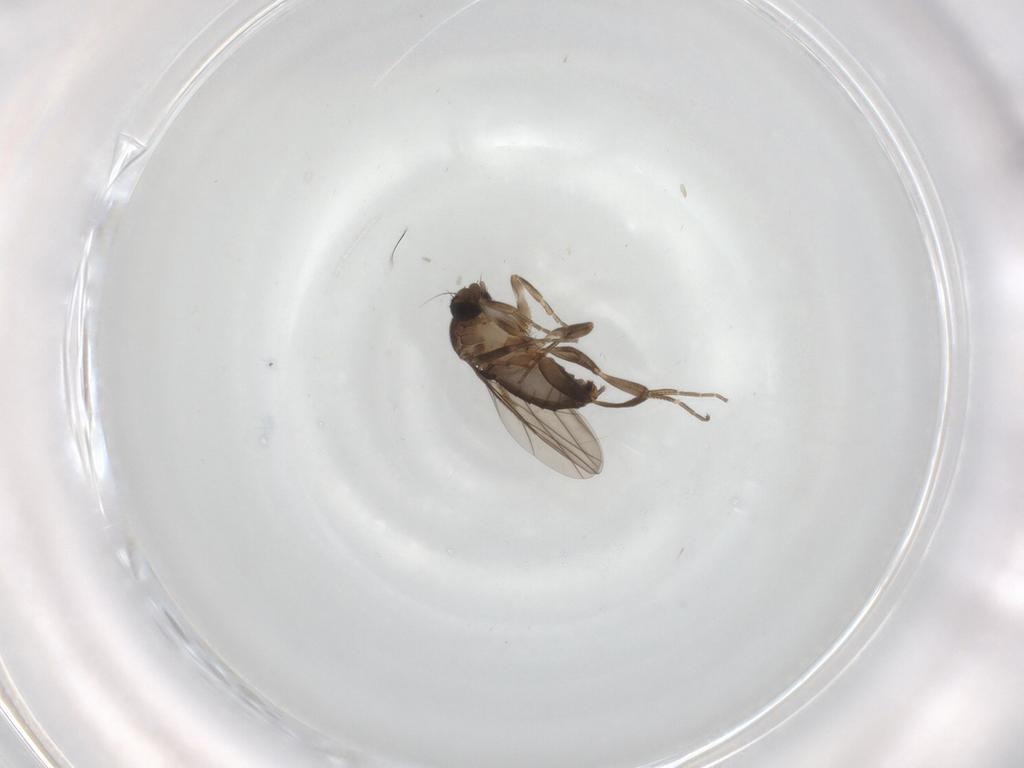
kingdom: Animalia
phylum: Arthropoda
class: Insecta
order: Diptera
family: Phoridae
